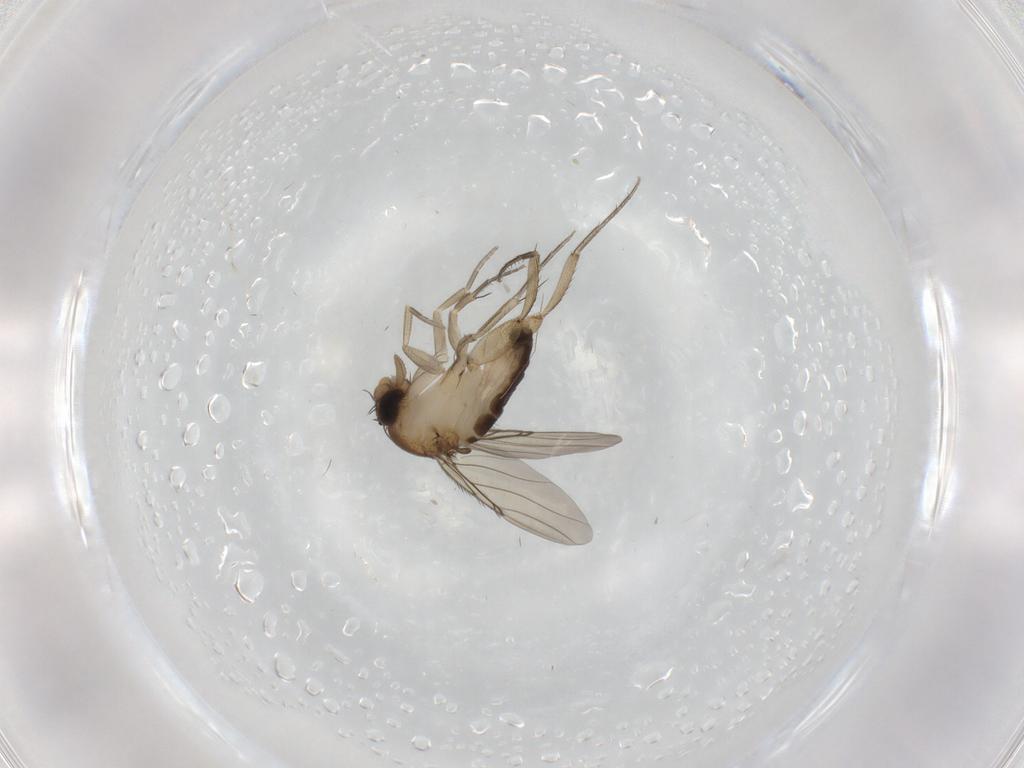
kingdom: Animalia
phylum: Arthropoda
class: Insecta
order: Diptera
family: Phoridae
